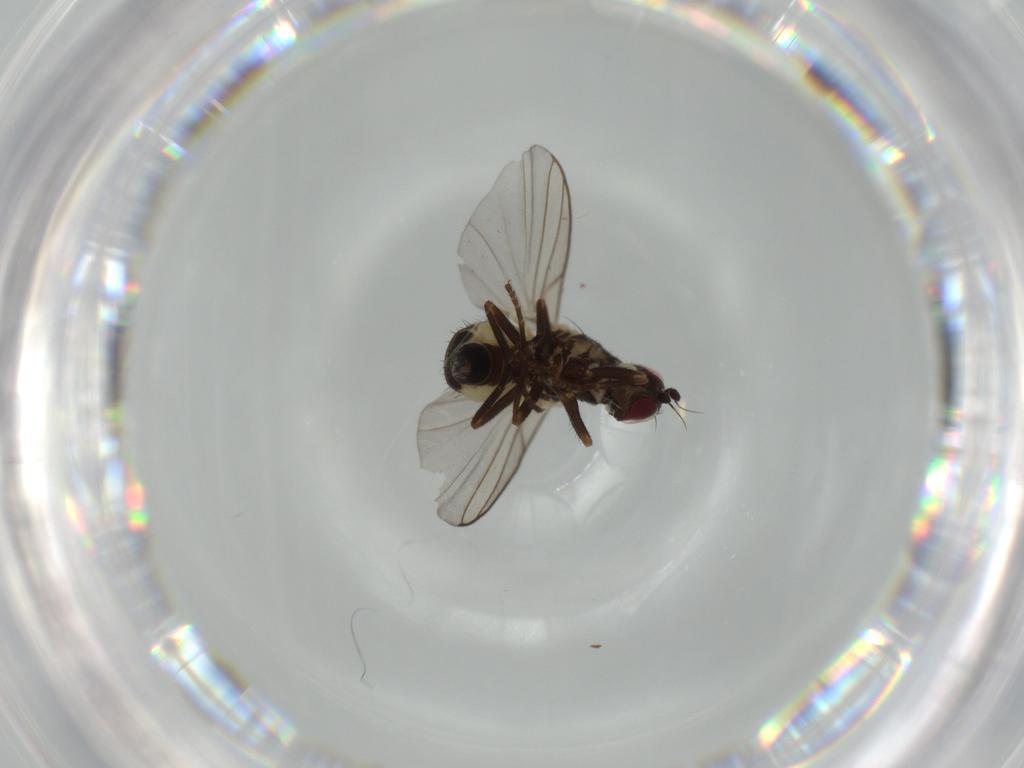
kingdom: Animalia
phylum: Arthropoda
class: Insecta
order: Diptera
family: Agromyzidae
